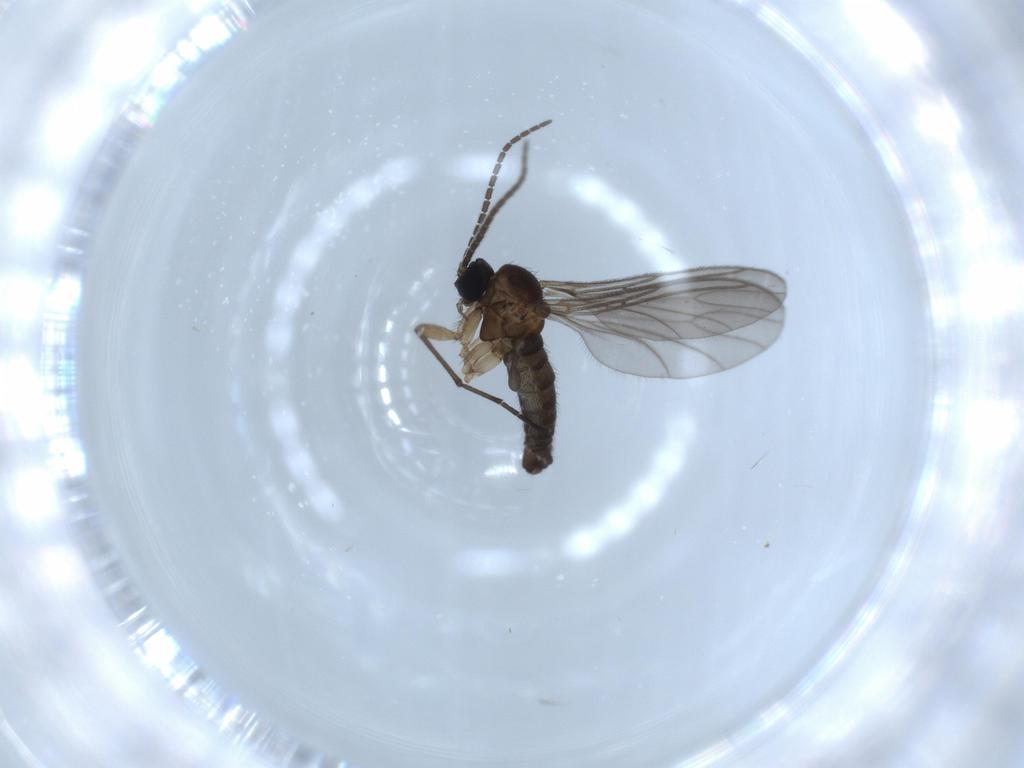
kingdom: Animalia
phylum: Arthropoda
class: Insecta
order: Diptera
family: Sciaridae
